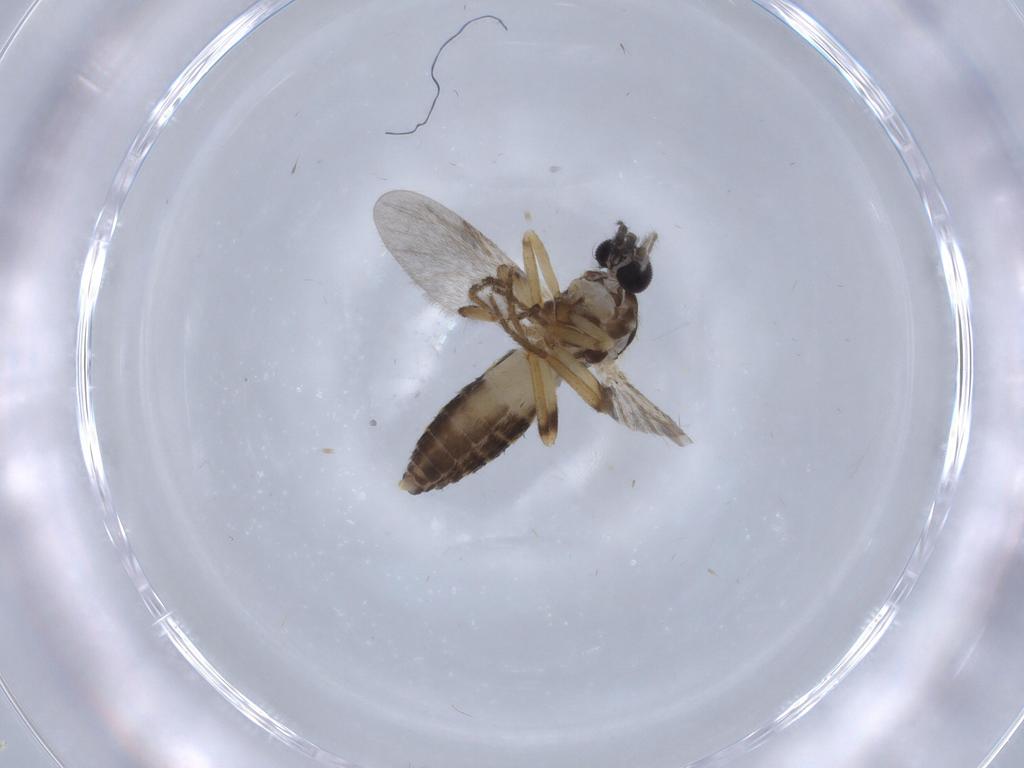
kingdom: Animalia
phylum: Arthropoda
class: Insecta
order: Diptera
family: Ceratopogonidae
